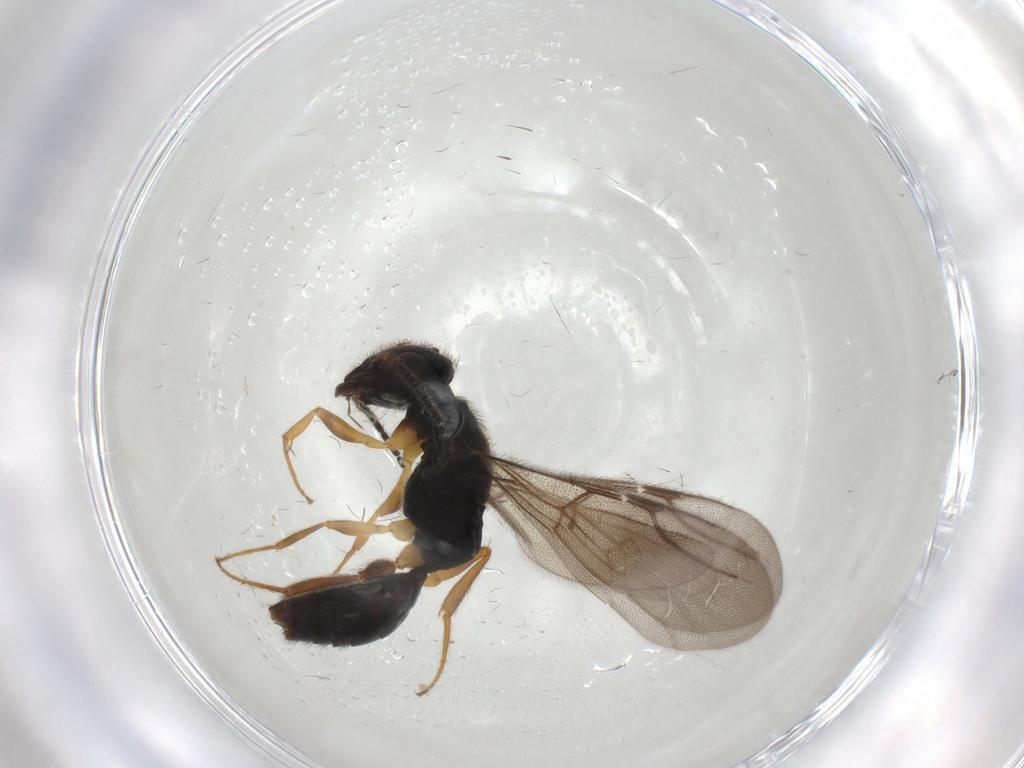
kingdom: Animalia
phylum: Arthropoda
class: Insecta
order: Hymenoptera
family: Bethylidae
